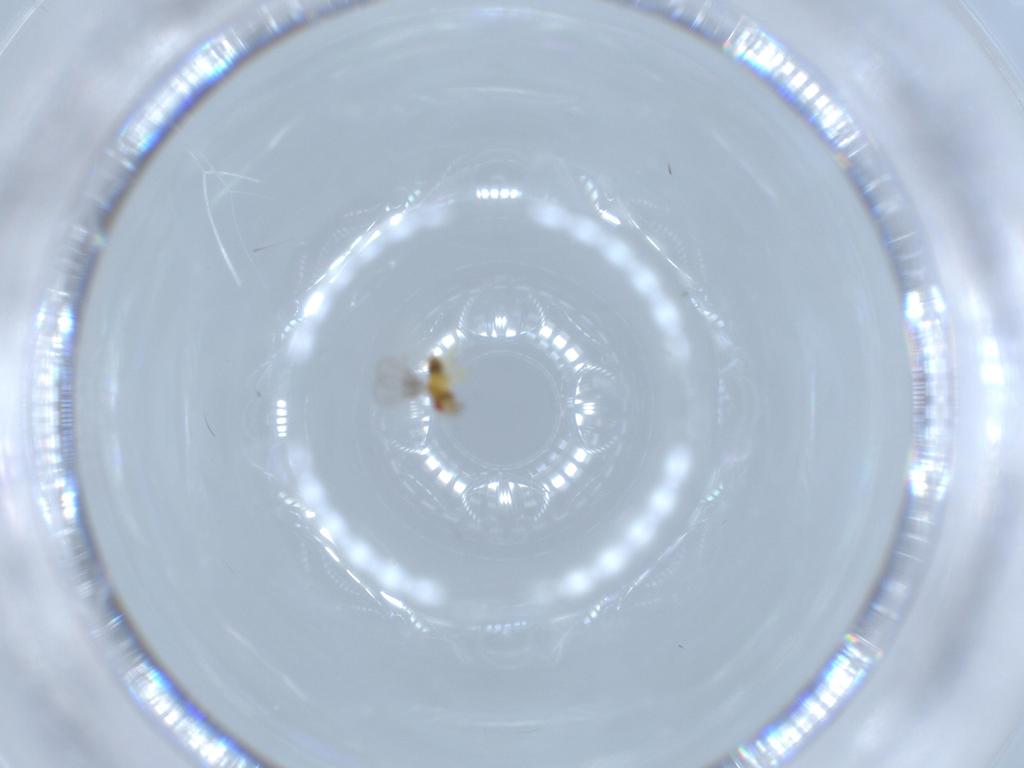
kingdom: Animalia
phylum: Arthropoda
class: Insecta
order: Hymenoptera
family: Trichogrammatidae
